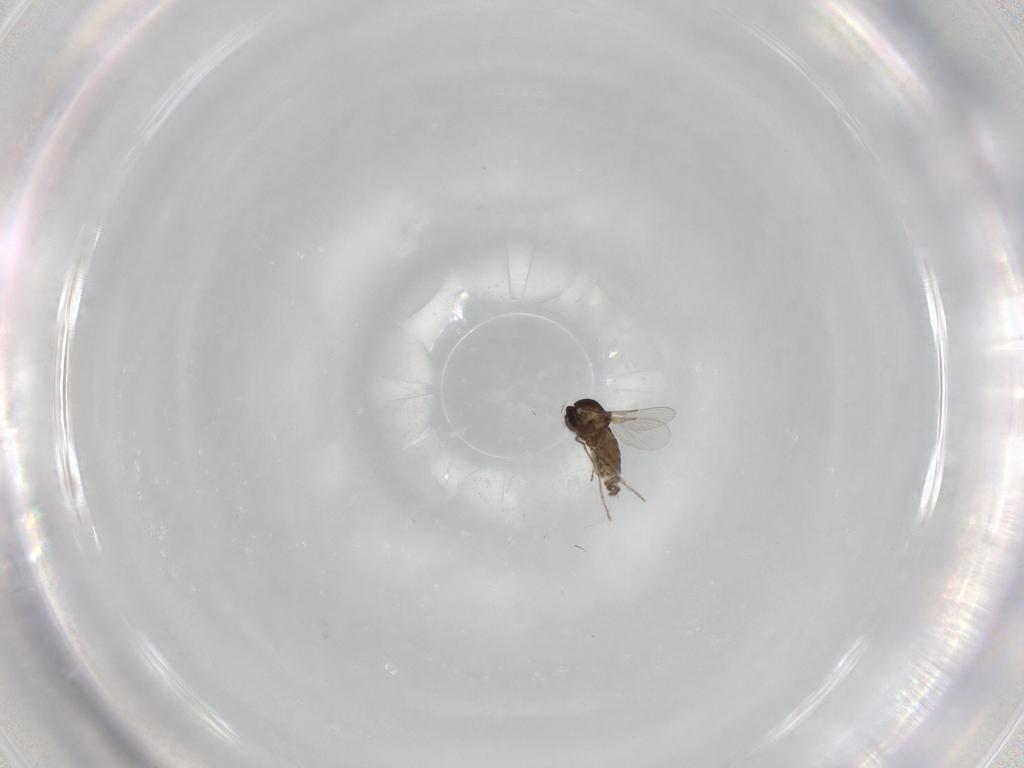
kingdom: Animalia
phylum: Arthropoda
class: Insecta
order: Diptera
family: Ceratopogonidae
